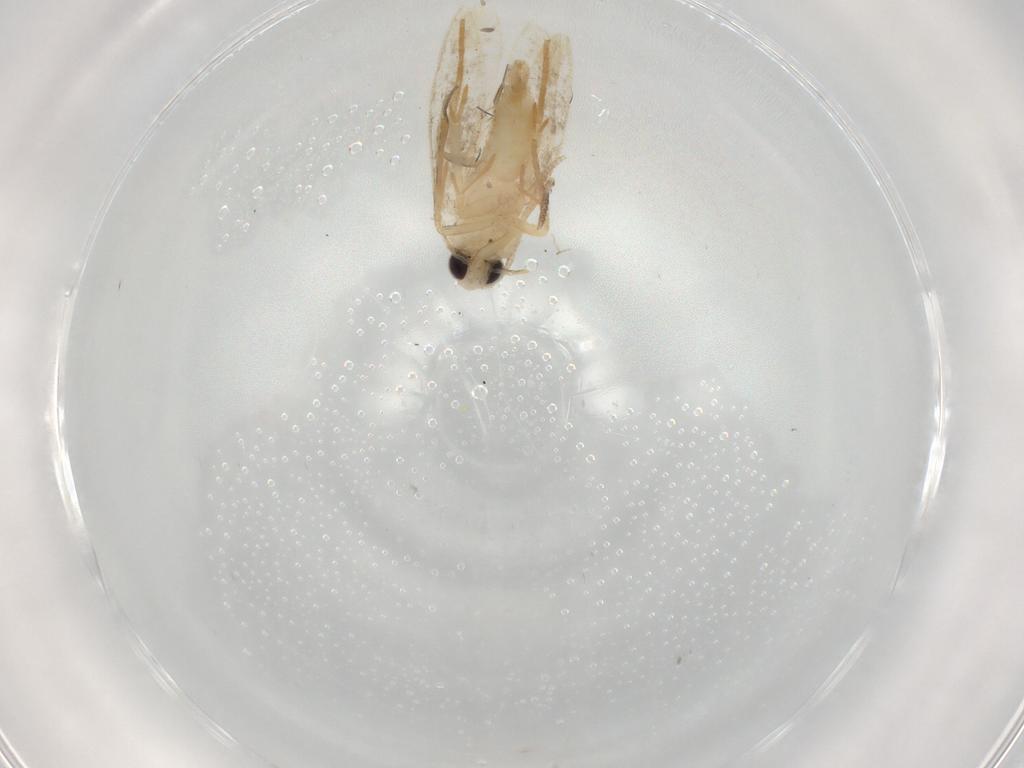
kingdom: Animalia
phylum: Arthropoda
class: Insecta
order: Lepidoptera
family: Tineidae
